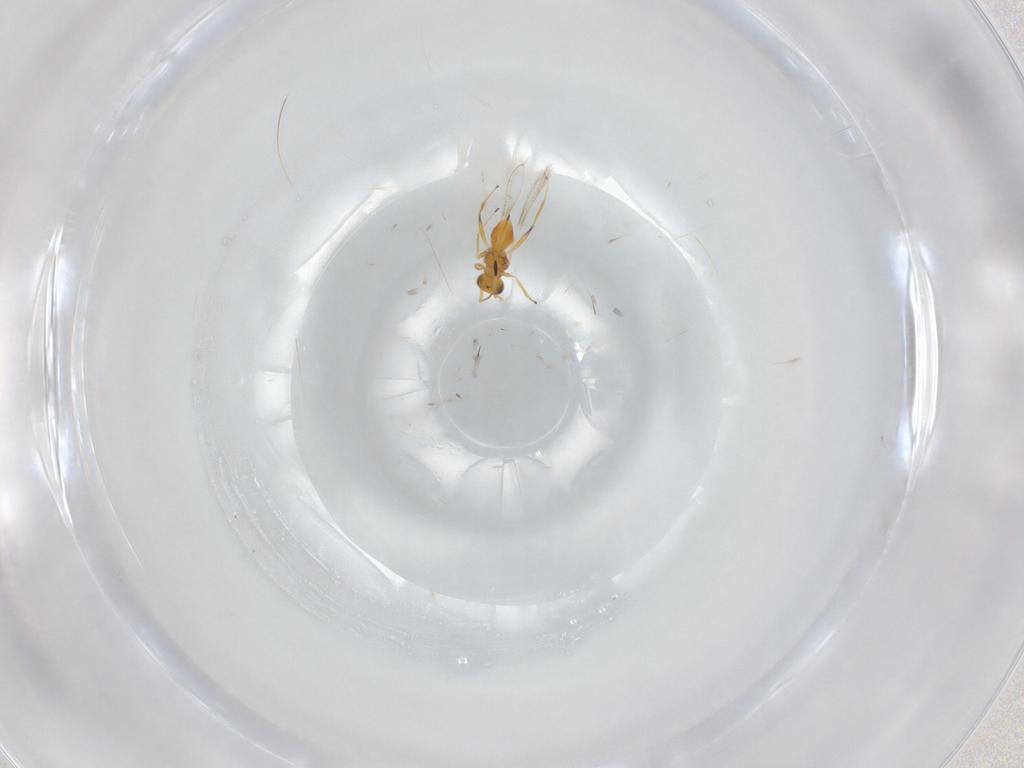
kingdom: Animalia
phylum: Arthropoda
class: Insecta
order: Hymenoptera
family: Mymaridae
